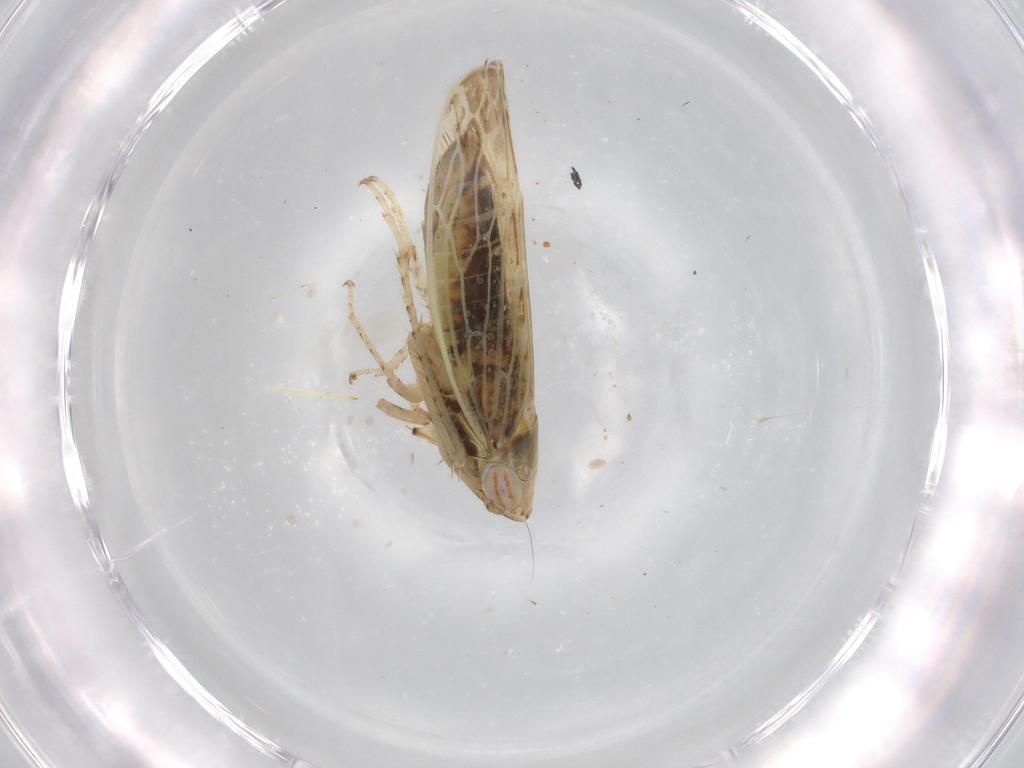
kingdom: Animalia
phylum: Arthropoda
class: Insecta
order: Hemiptera
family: Cicadellidae
